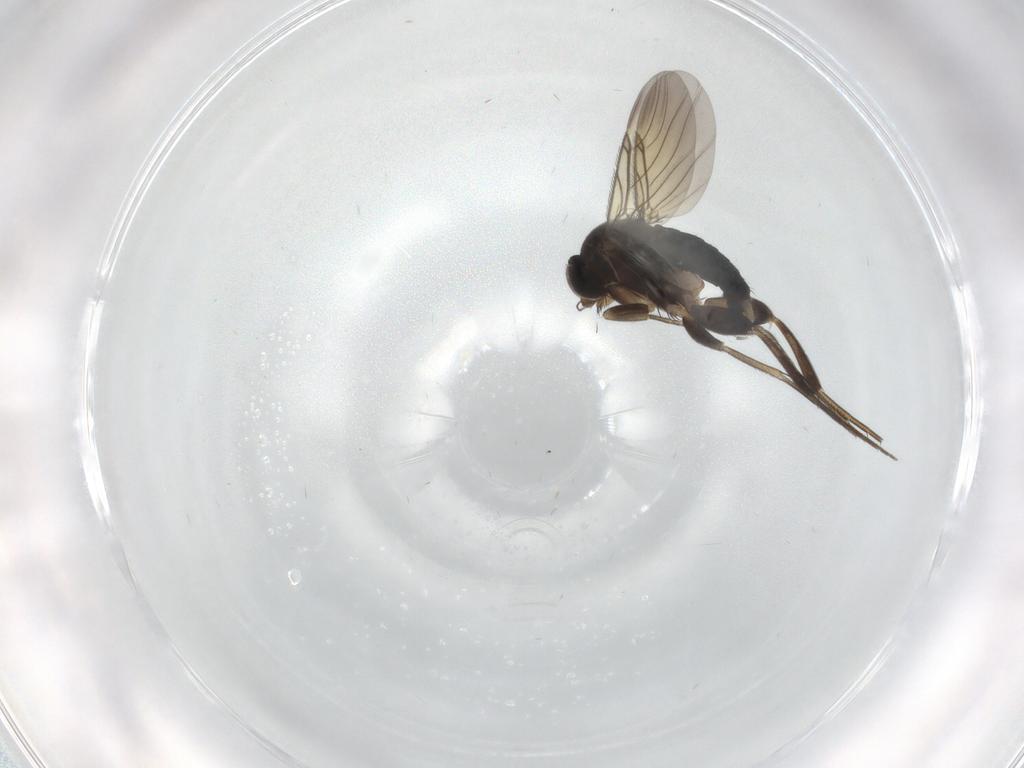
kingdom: Animalia
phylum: Arthropoda
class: Insecta
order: Diptera
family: Phoridae
